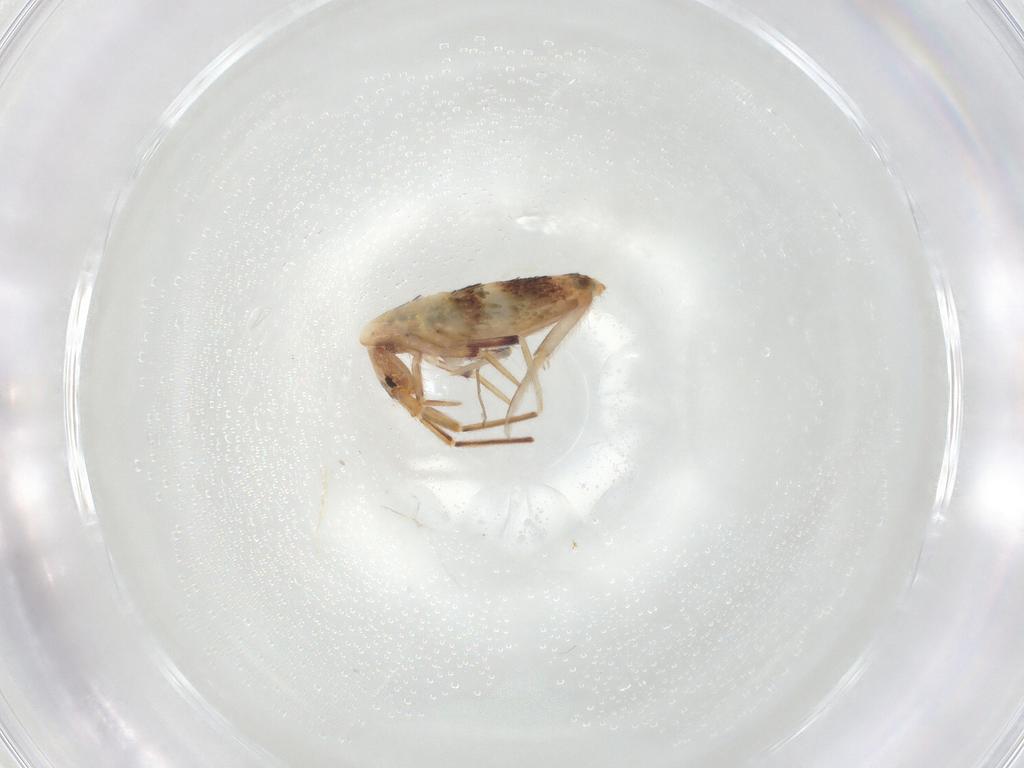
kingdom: Animalia
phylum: Arthropoda
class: Collembola
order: Entomobryomorpha
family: Entomobryidae
